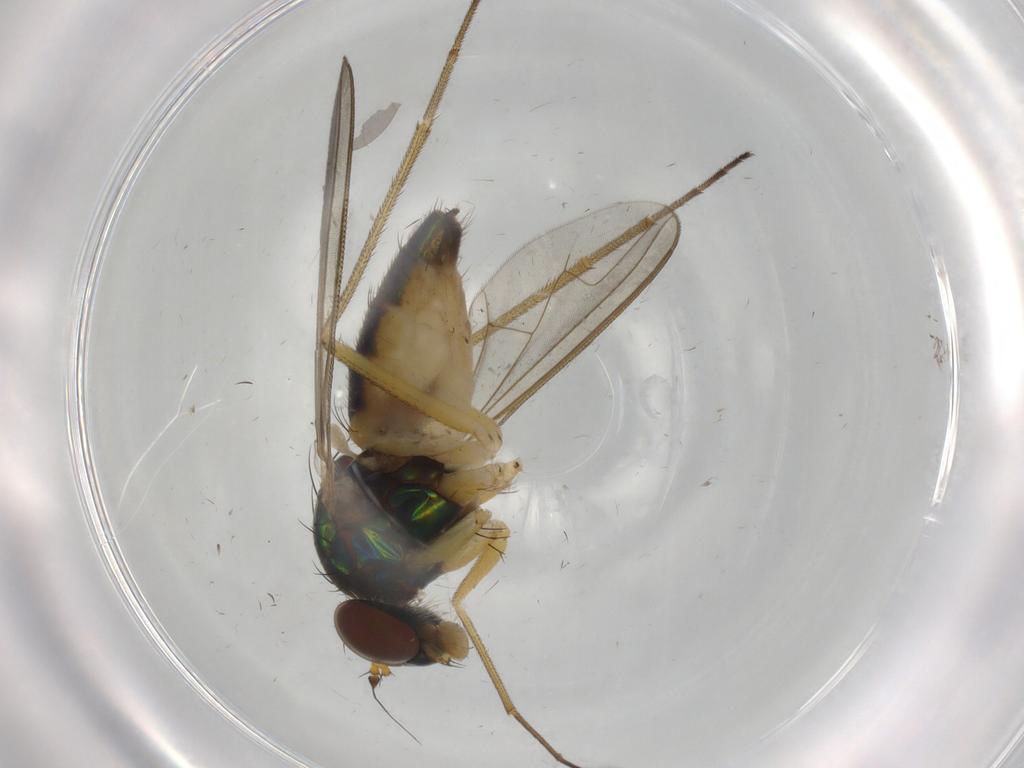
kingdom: Animalia
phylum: Arthropoda
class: Insecta
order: Diptera
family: Dolichopodidae
